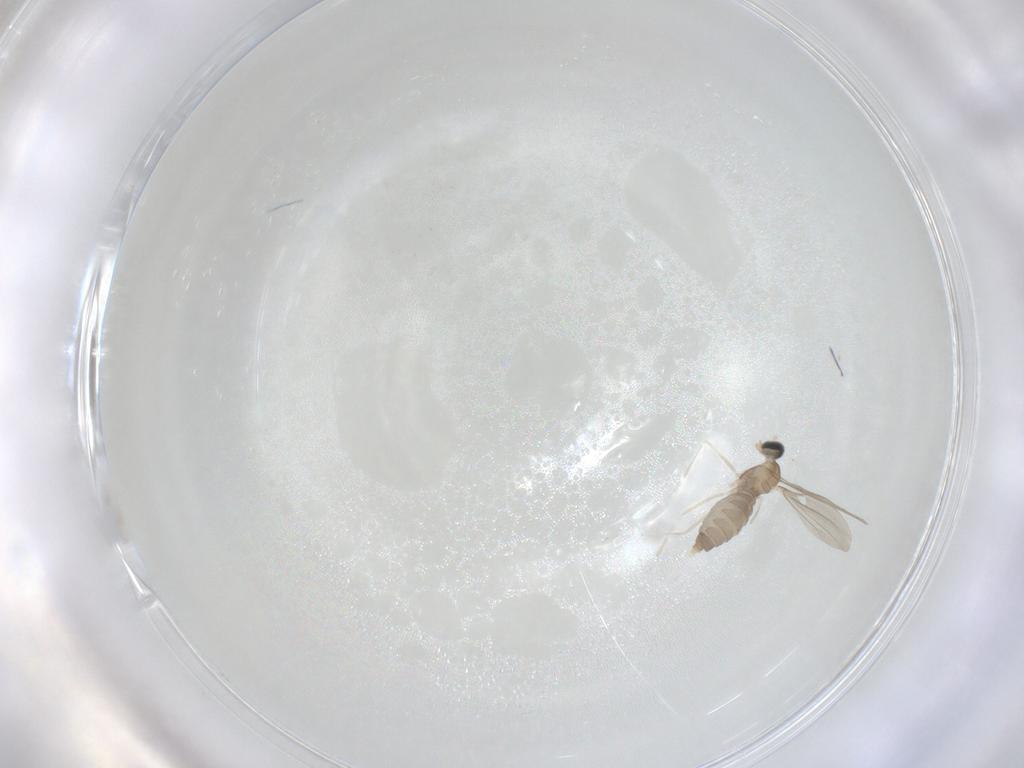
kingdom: Animalia
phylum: Arthropoda
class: Insecta
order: Diptera
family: Cecidomyiidae
